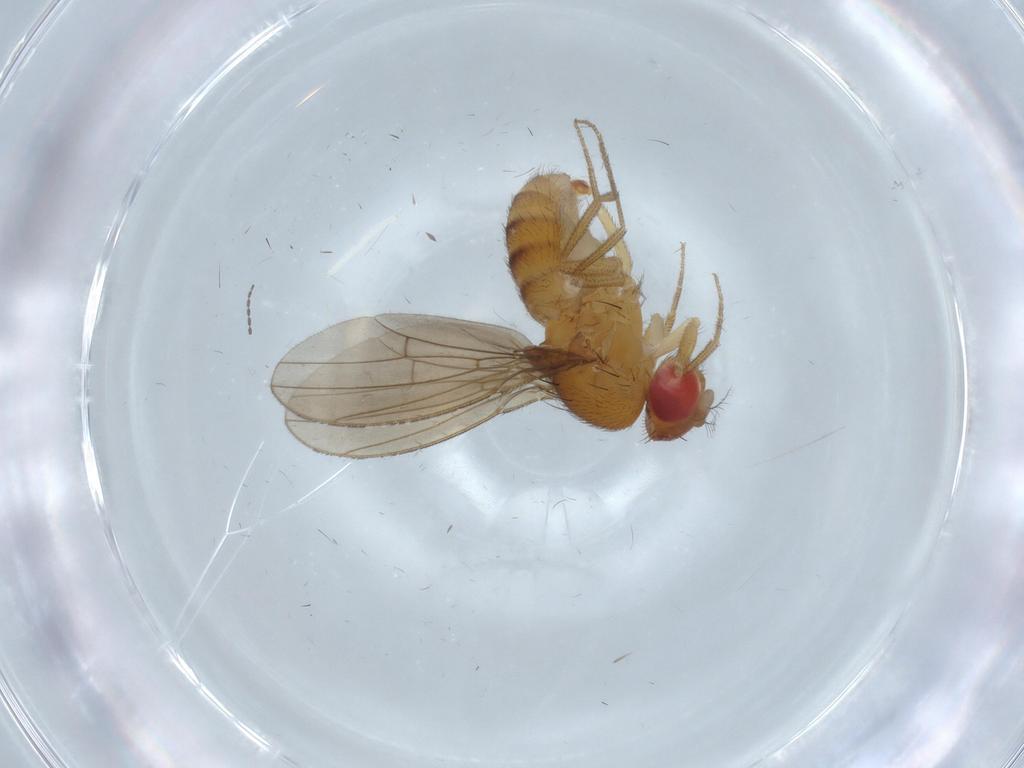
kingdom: Animalia
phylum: Arthropoda
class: Insecta
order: Diptera
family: Drosophilidae
